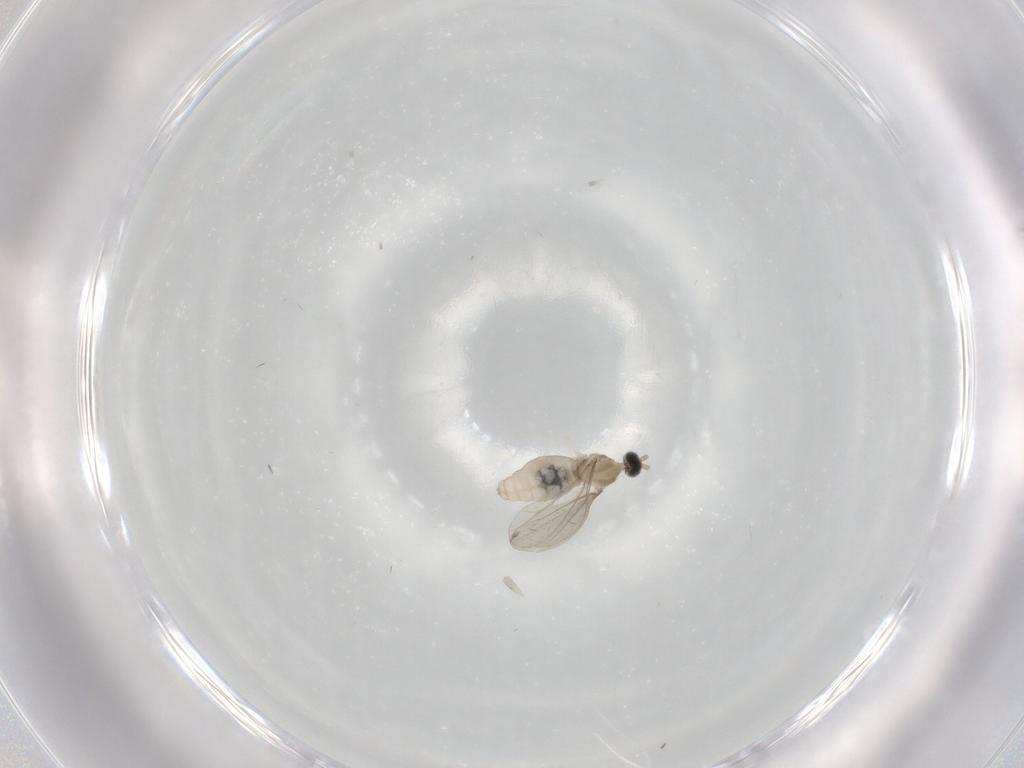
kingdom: Animalia
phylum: Arthropoda
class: Insecta
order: Diptera
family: Cecidomyiidae
